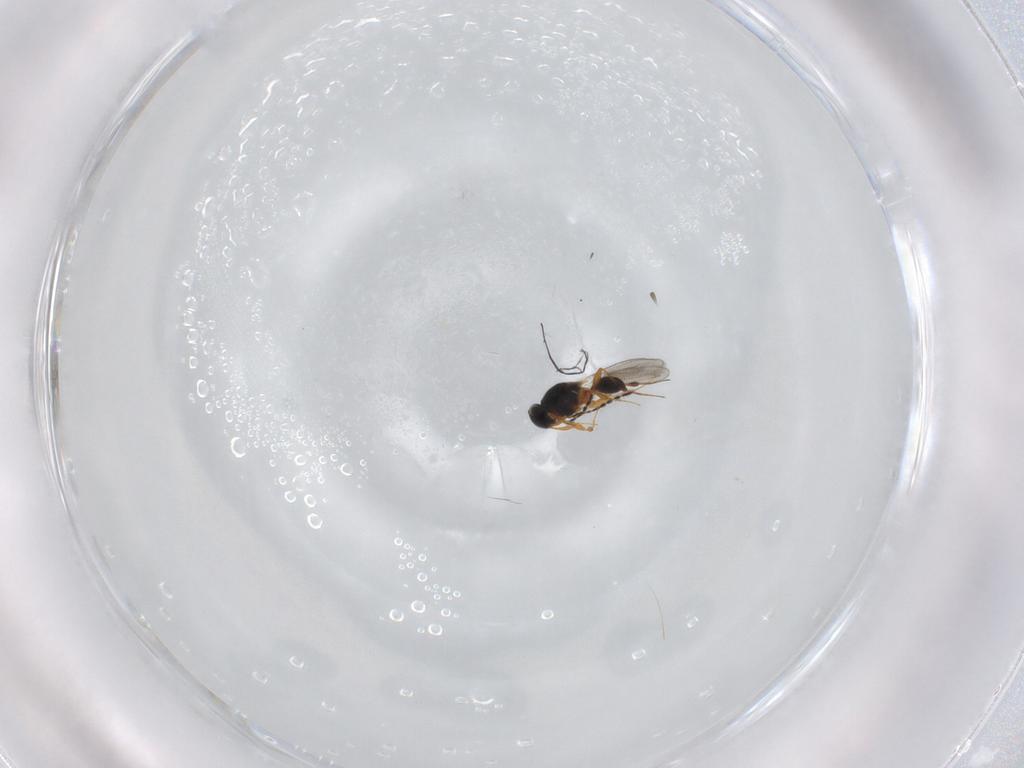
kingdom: Animalia
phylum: Arthropoda
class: Insecta
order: Hymenoptera
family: Platygastridae
